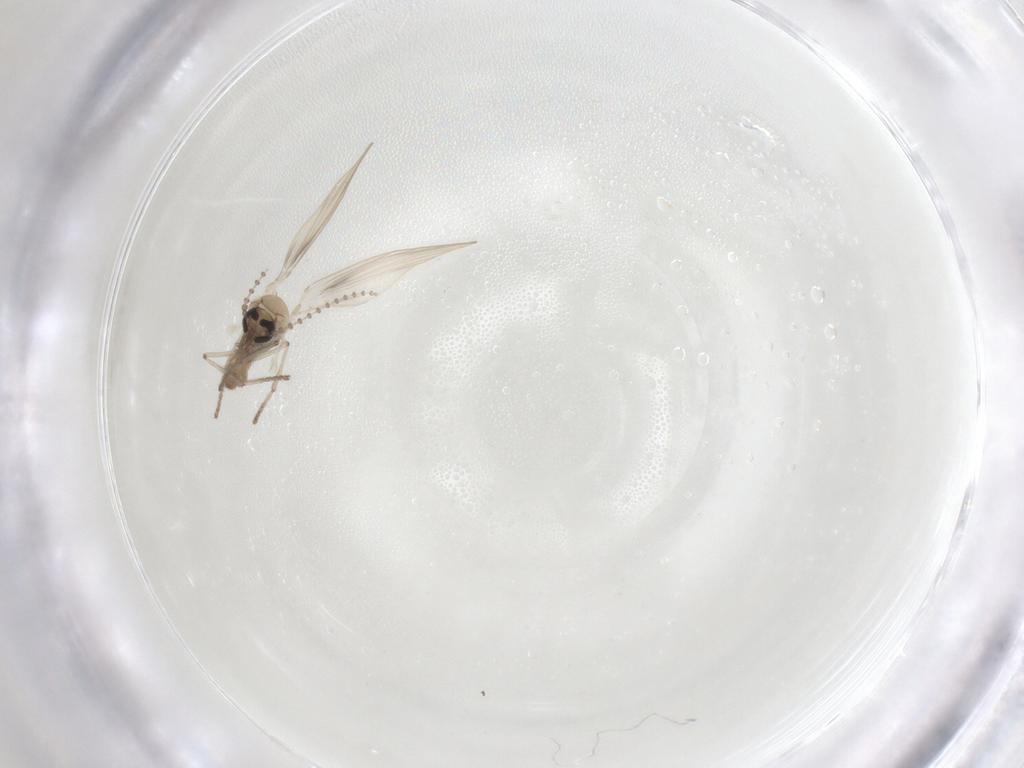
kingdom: Animalia
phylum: Arthropoda
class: Insecta
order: Diptera
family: Psychodidae
